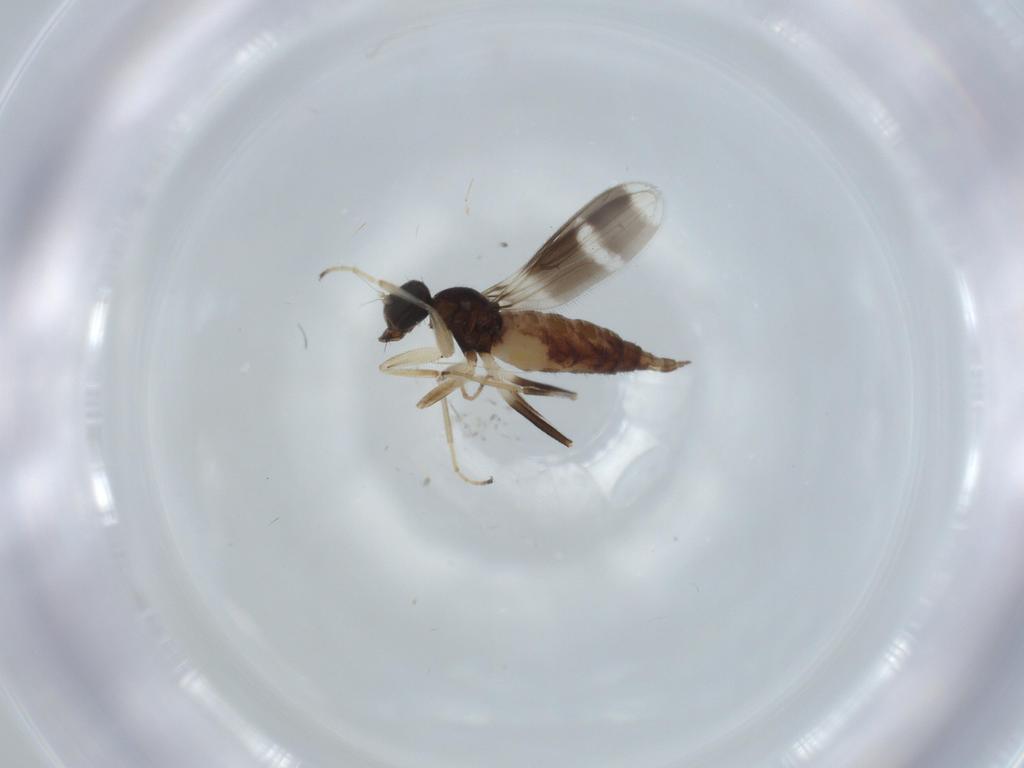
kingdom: Animalia
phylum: Arthropoda
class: Insecta
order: Diptera
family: Hybotidae
